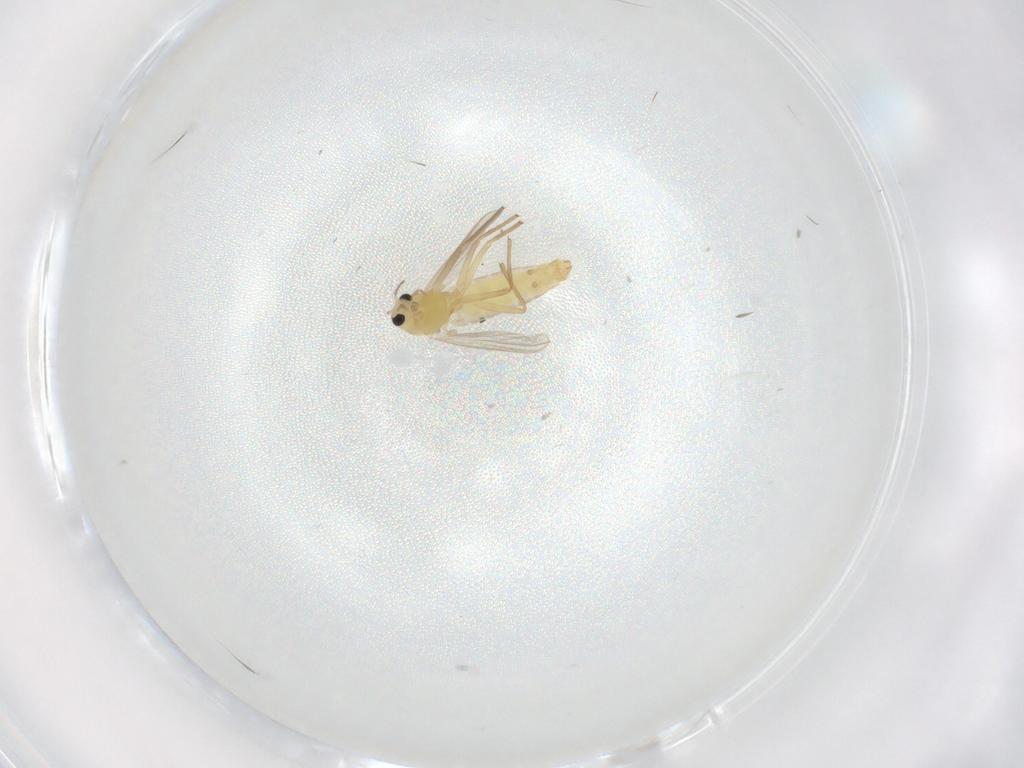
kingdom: Animalia
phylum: Arthropoda
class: Insecta
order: Diptera
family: Chironomidae
